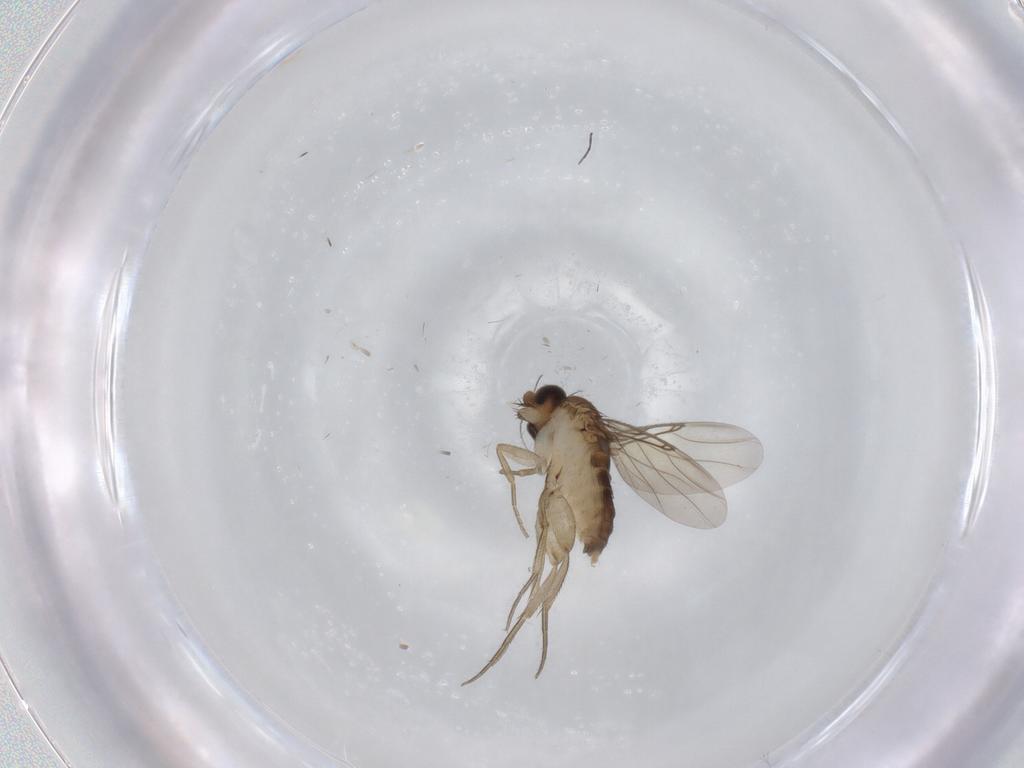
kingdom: Animalia
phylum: Arthropoda
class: Insecta
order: Diptera
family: Phoridae
